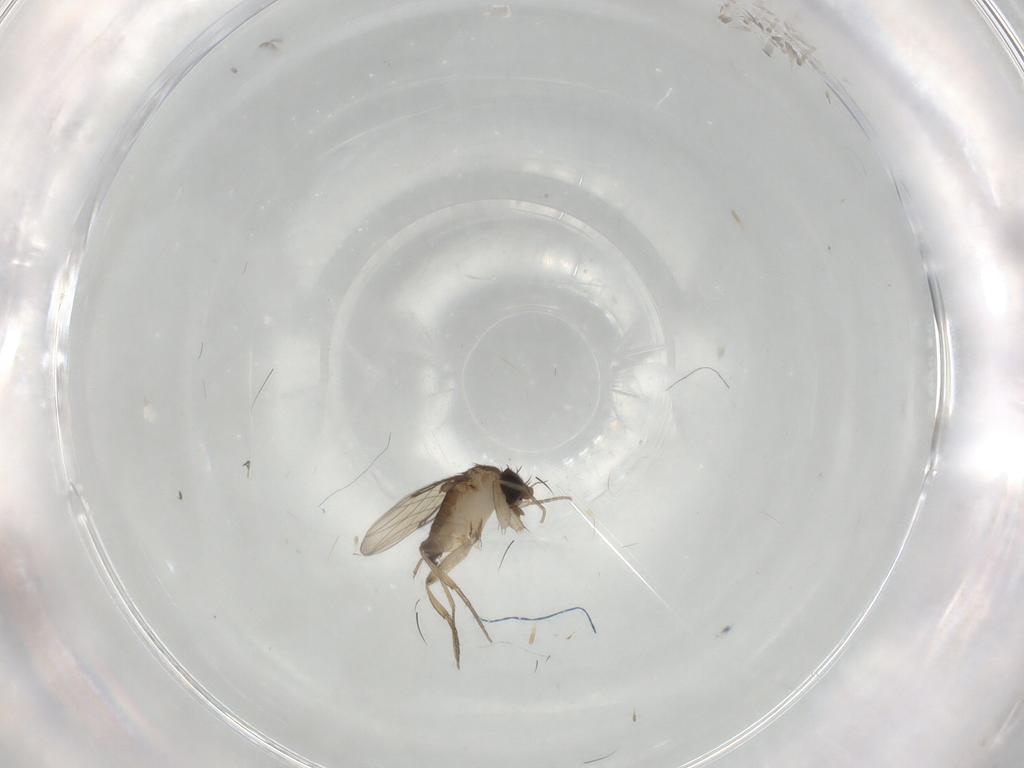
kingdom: Animalia
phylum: Arthropoda
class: Insecta
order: Diptera
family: Phoridae
